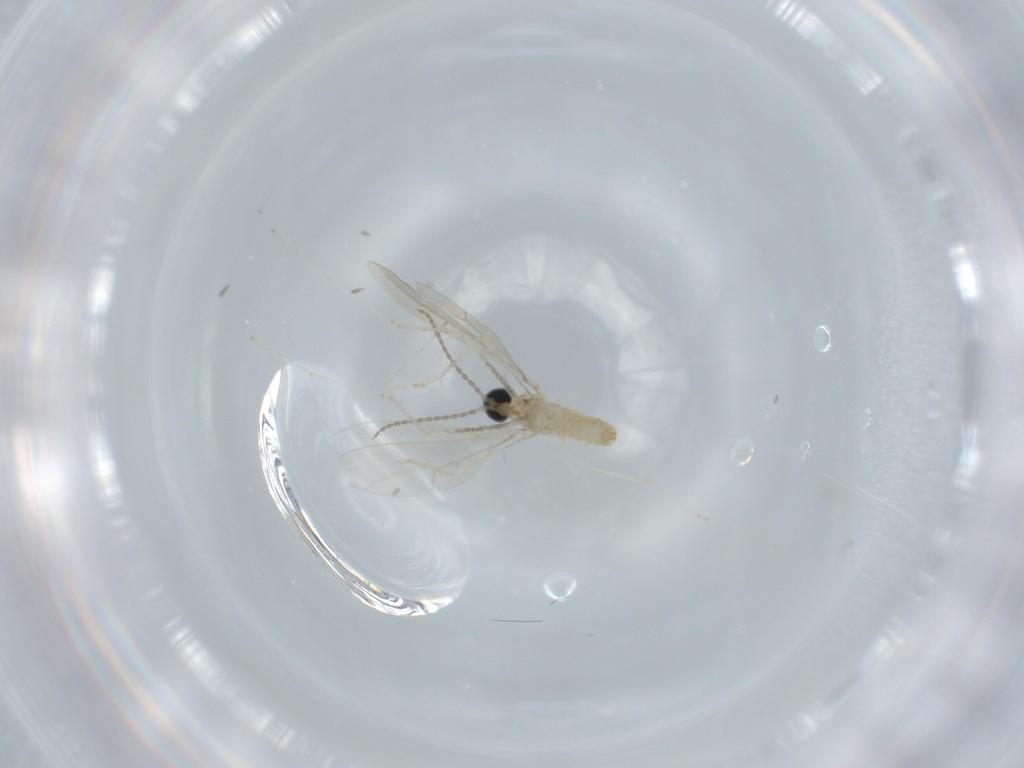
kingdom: Animalia
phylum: Arthropoda
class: Insecta
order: Diptera
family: Cecidomyiidae
